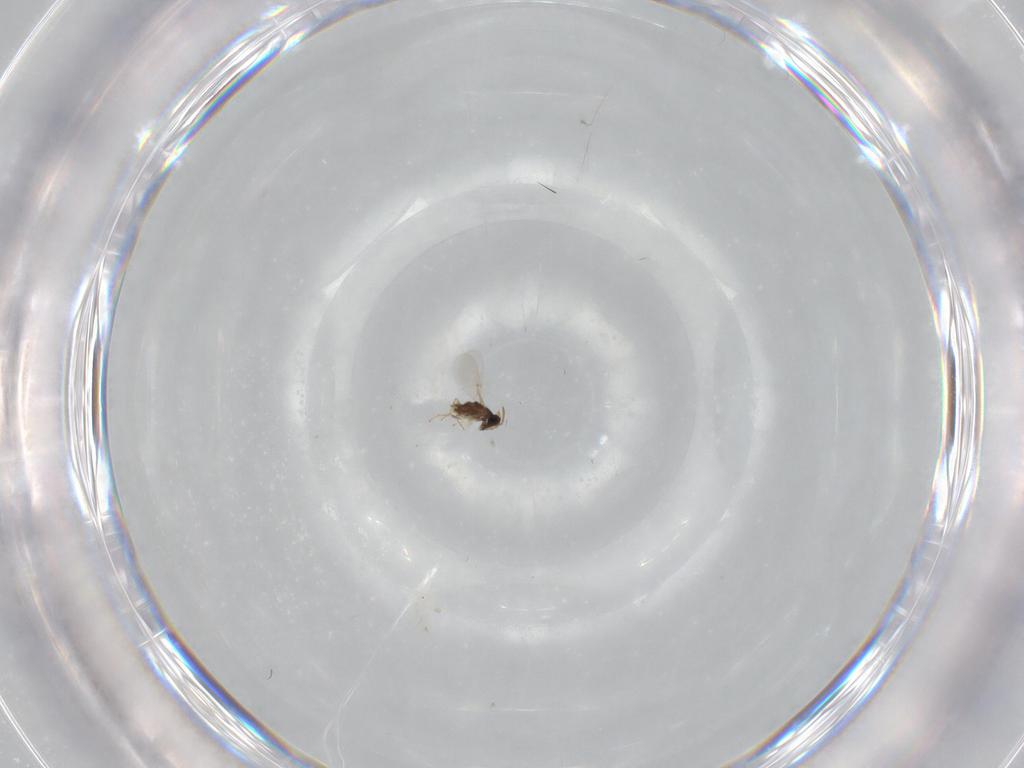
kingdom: Animalia
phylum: Arthropoda
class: Insecta
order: Hymenoptera
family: Encyrtidae
